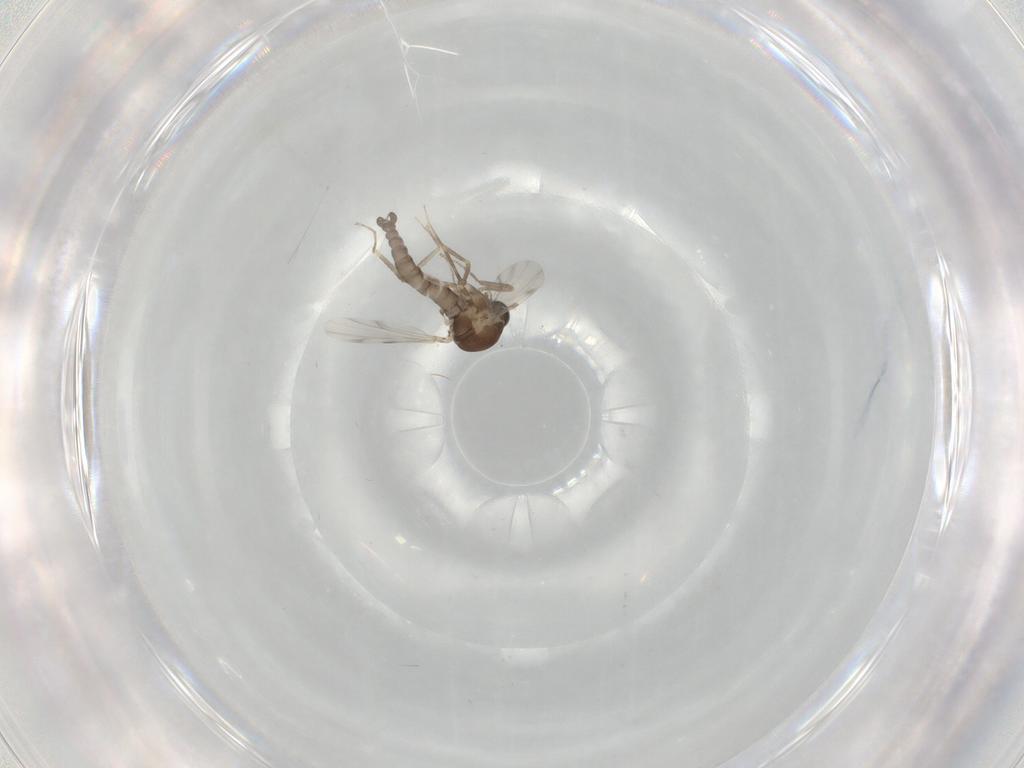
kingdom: Animalia
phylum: Arthropoda
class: Insecta
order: Diptera
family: Ceratopogonidae
